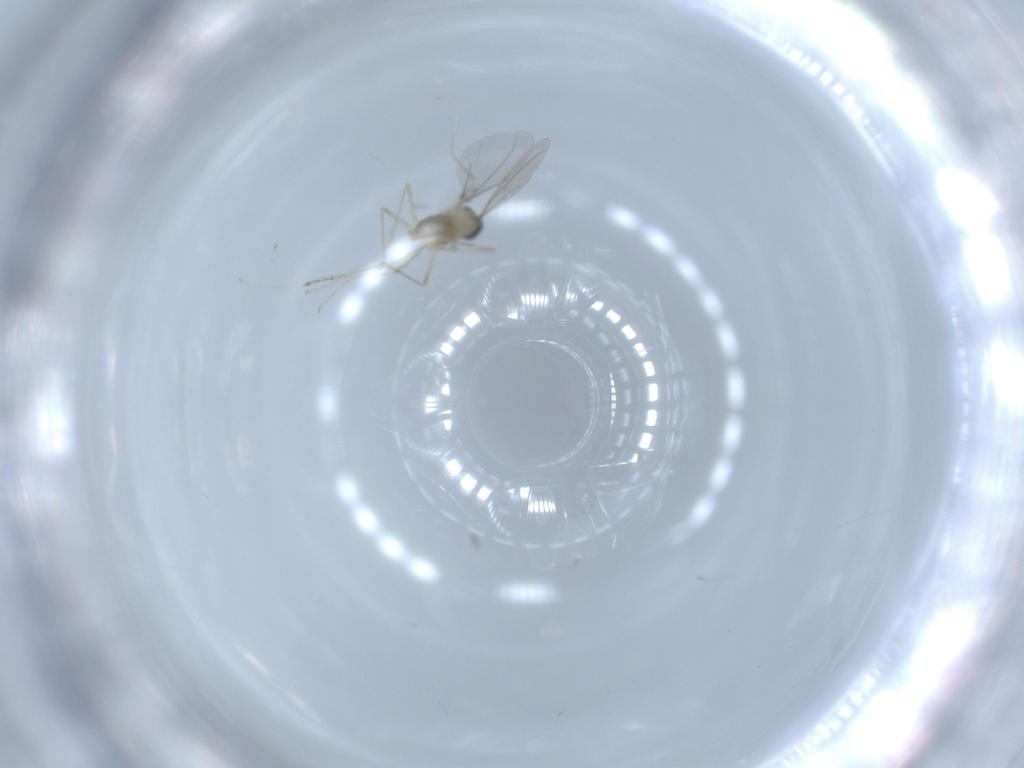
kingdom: Animalia
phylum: Arthropoda
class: Insecta
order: Diptera
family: Cecidomyiidae
